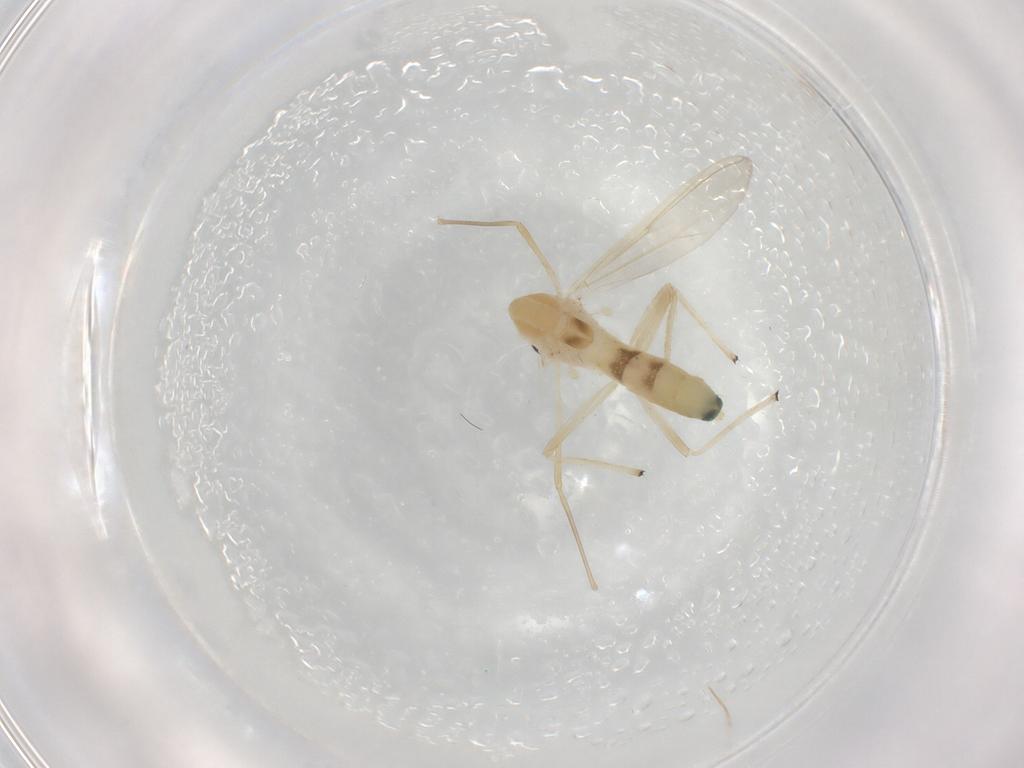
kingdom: Animalia
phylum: Arthropoda
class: Insecta
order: Diptera
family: Chironomidae
